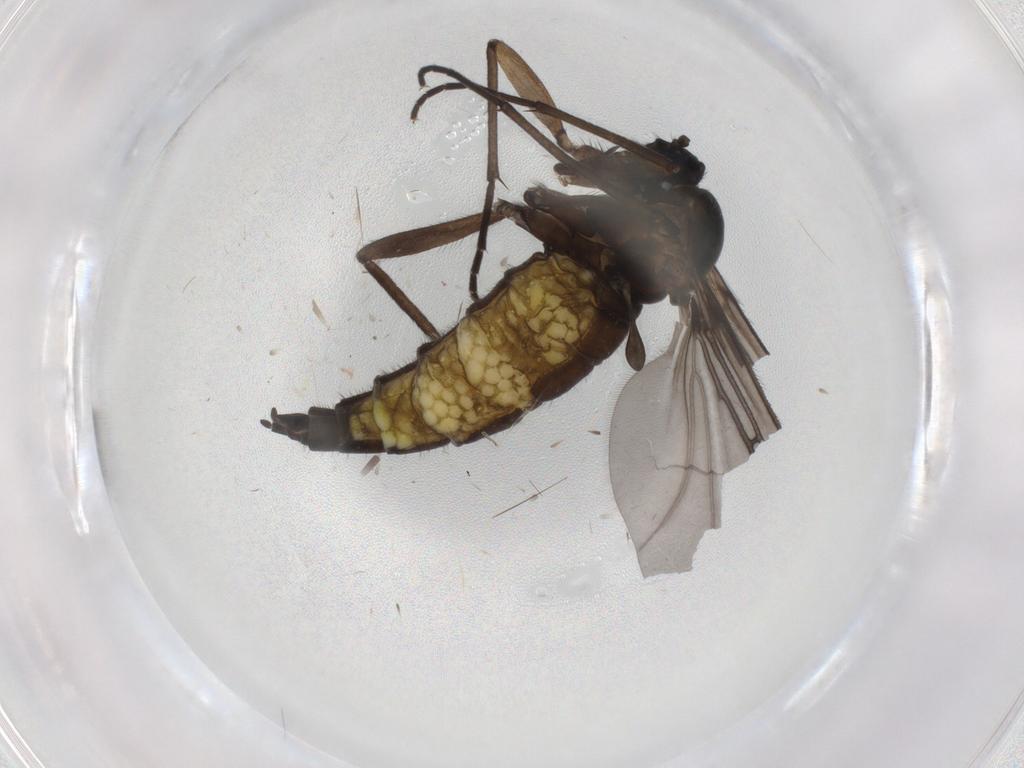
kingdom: Animalia
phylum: Arthropoda
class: Insecta
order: Diptera
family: Sciaridae
